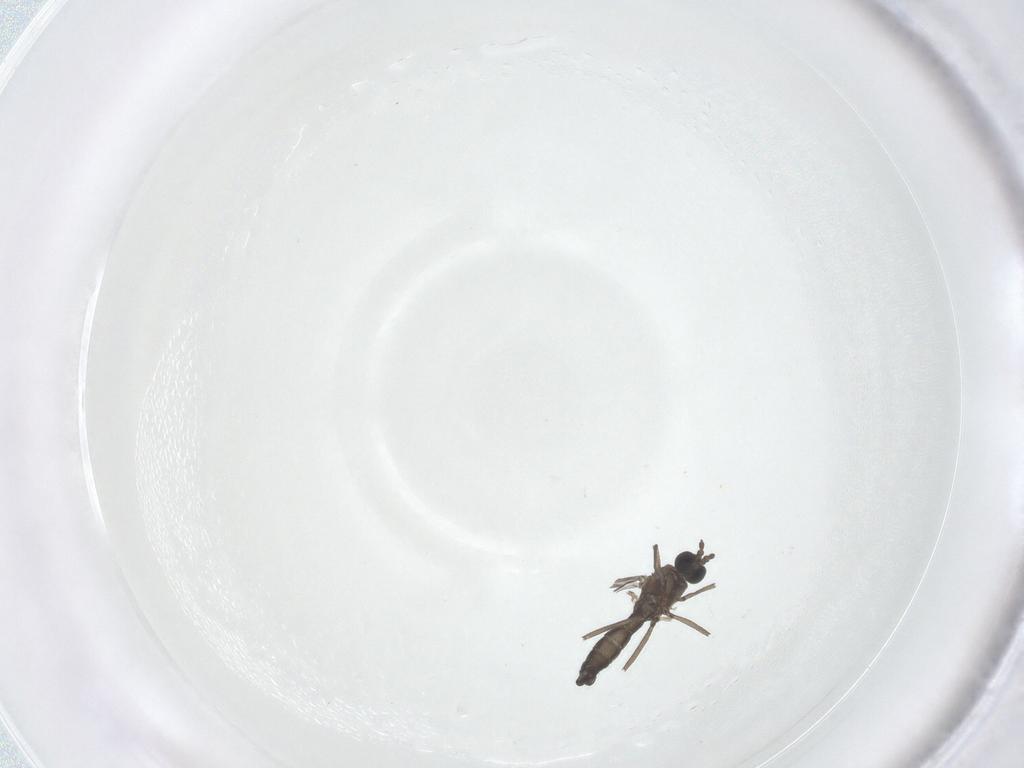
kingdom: Animalia
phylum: Arthropoda
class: Insecta
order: Diptera
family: Sciaridae
